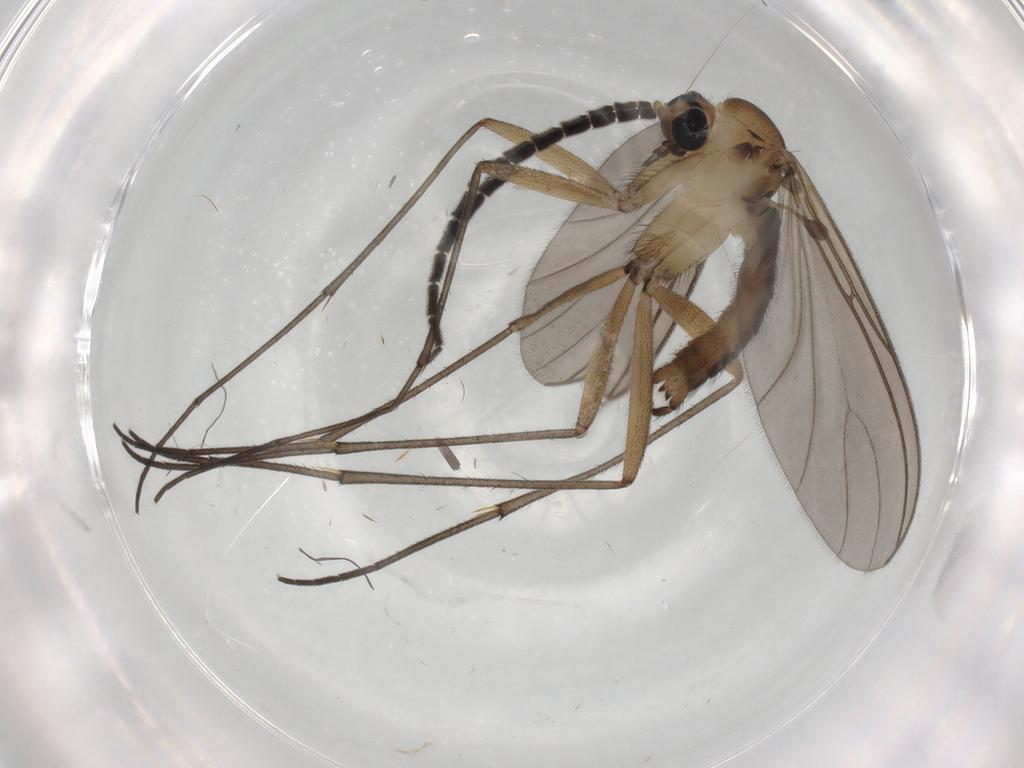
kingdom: Animalia
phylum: Arthropoda
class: Insecta
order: Diptera
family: Sciaridae
